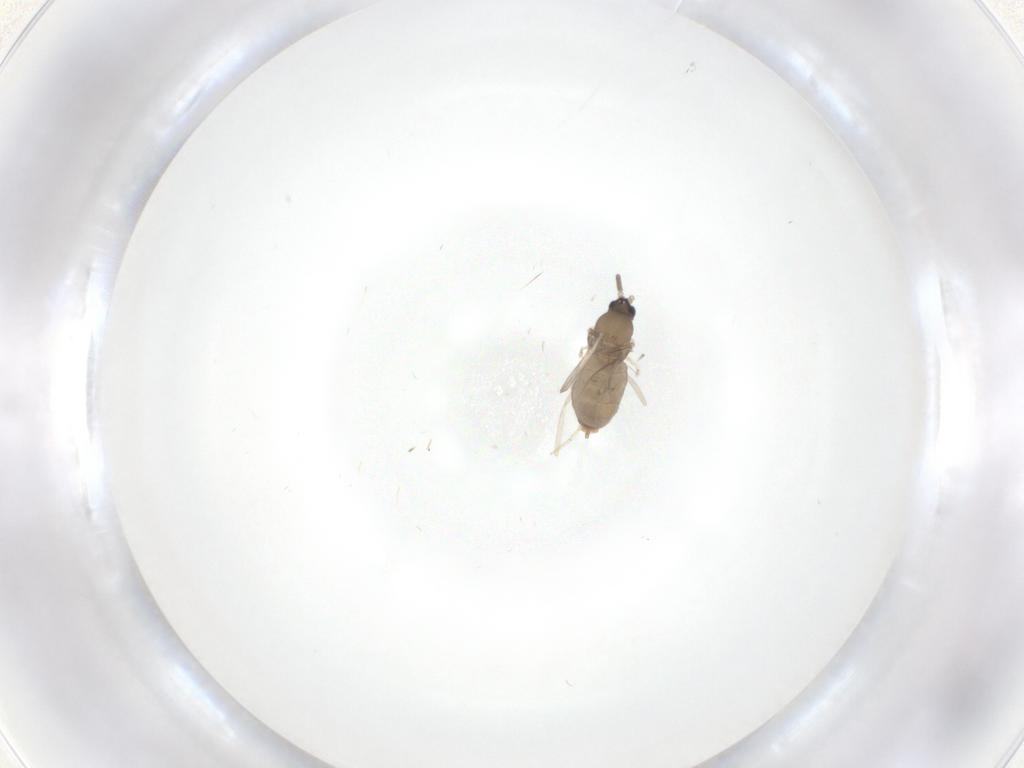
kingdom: Animalia
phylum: Arthropoda
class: Insecta
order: Diptera
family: Cecidomyiidae
